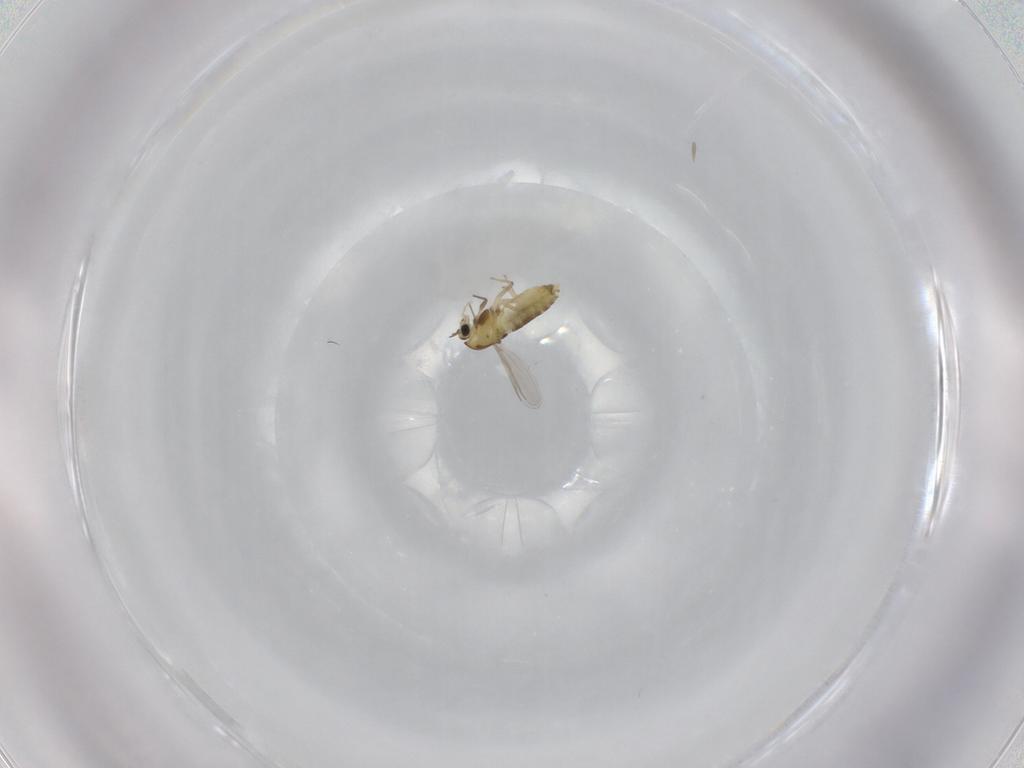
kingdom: Animalia
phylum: Arthropoda
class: Insecta
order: Diptera
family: Chironomidae
